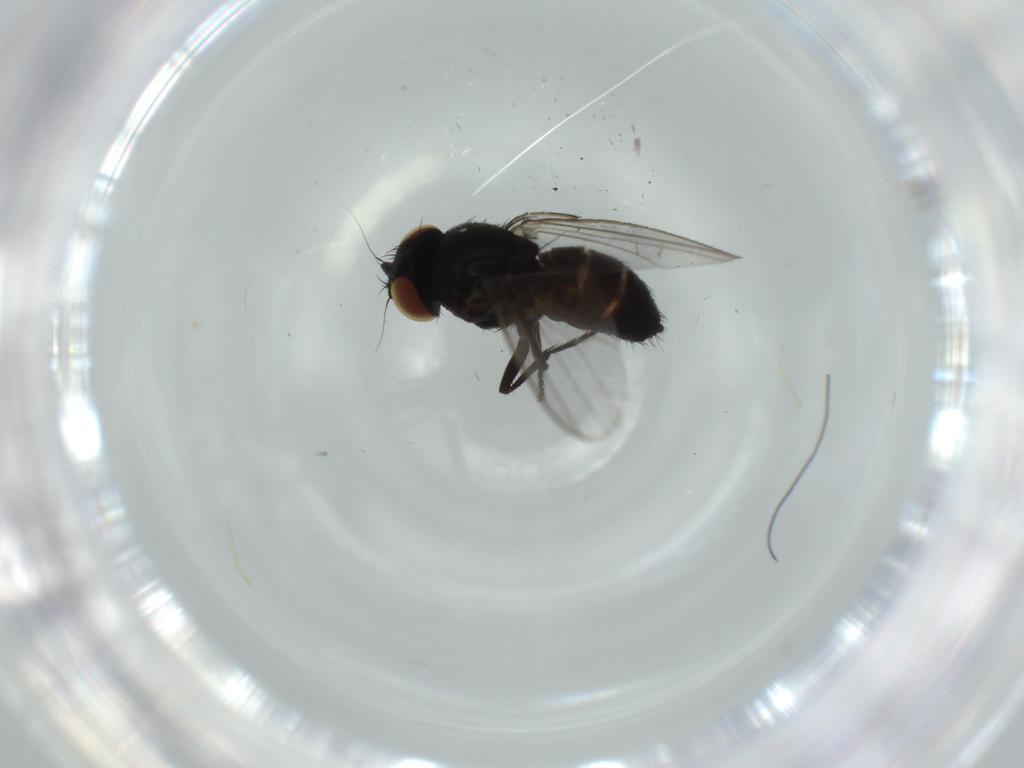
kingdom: Animalia
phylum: Arthropoda
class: Insecta
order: Diptera
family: Milichiidae
